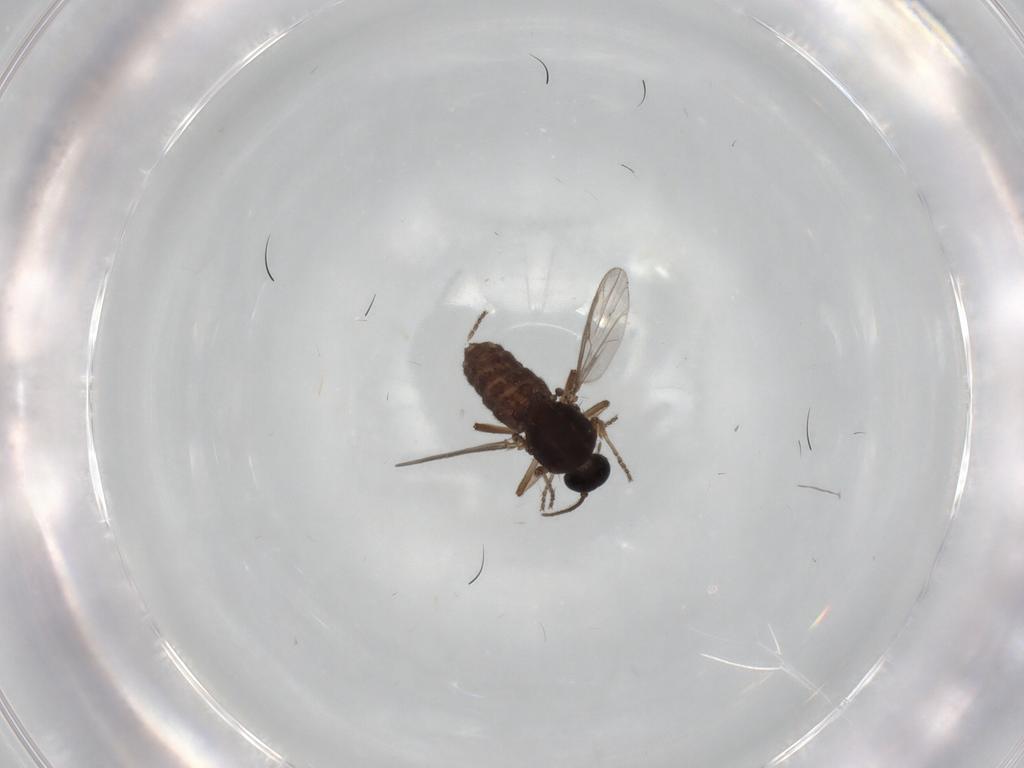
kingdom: Animalia
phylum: Arthropoda
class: Insecta
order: Diptera
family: Ceratopogonidae
